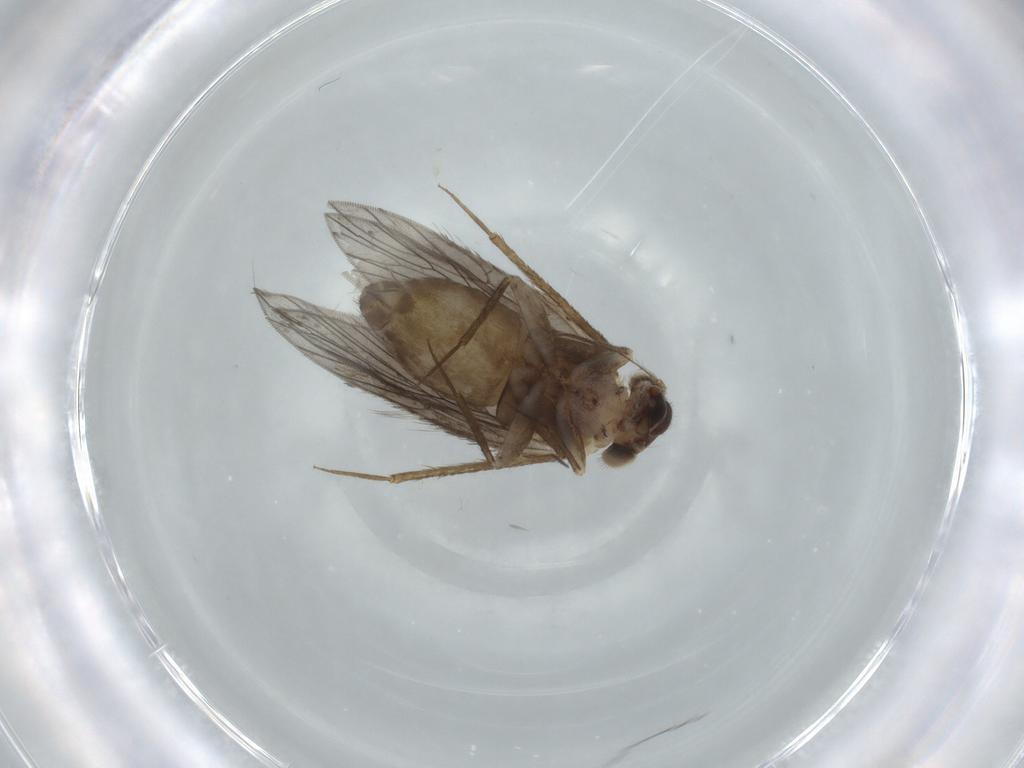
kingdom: Animalia
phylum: Arthropoda
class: Insecta
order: Psocodea
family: Lepidopsocidae
